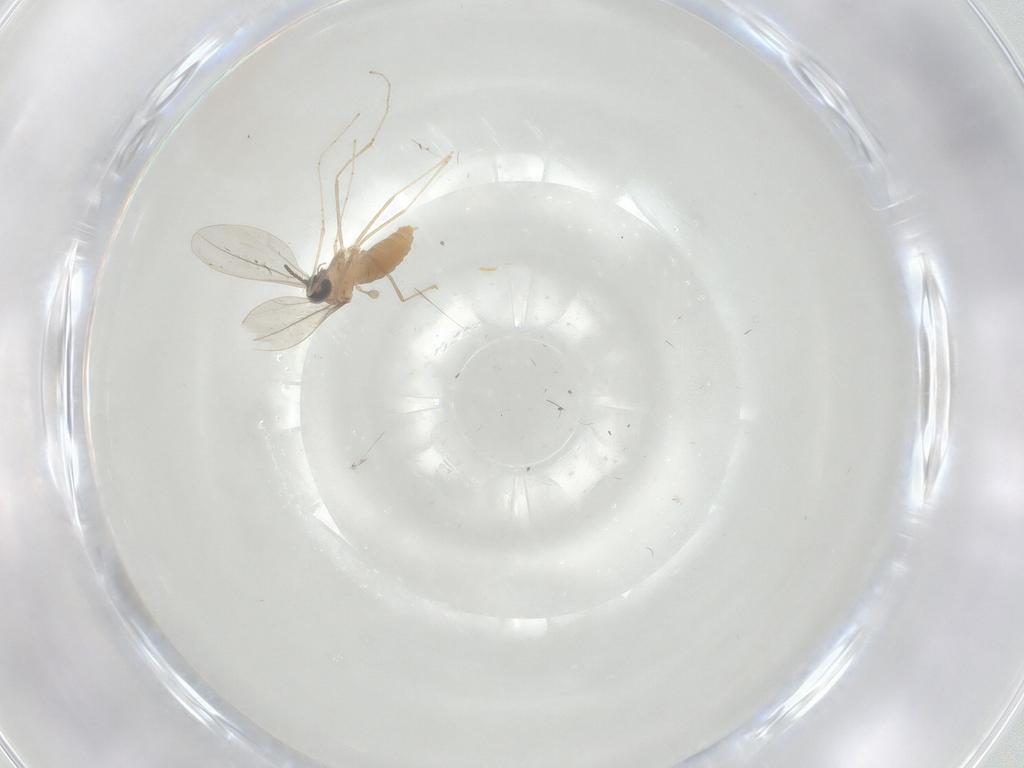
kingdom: Animalia
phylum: Arthropoda
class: Insecta
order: Diptera
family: Cecidomyiidae
